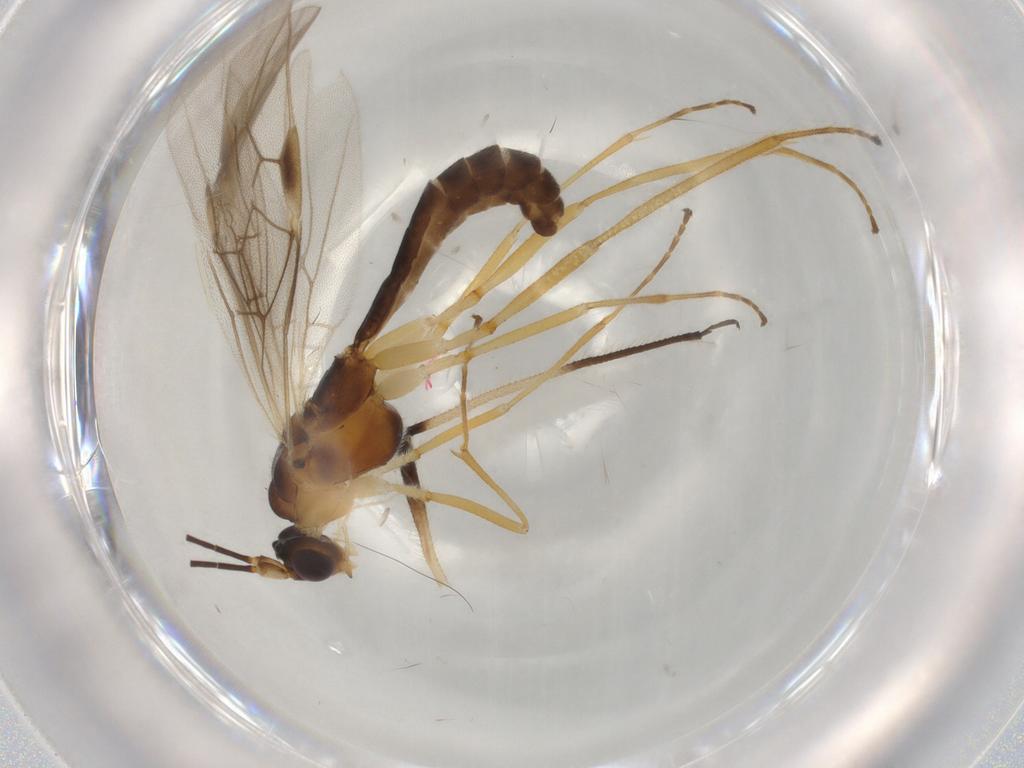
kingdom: Animalia
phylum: Arthropoda
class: Insecta
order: Hymenoptera
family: Braconidae
